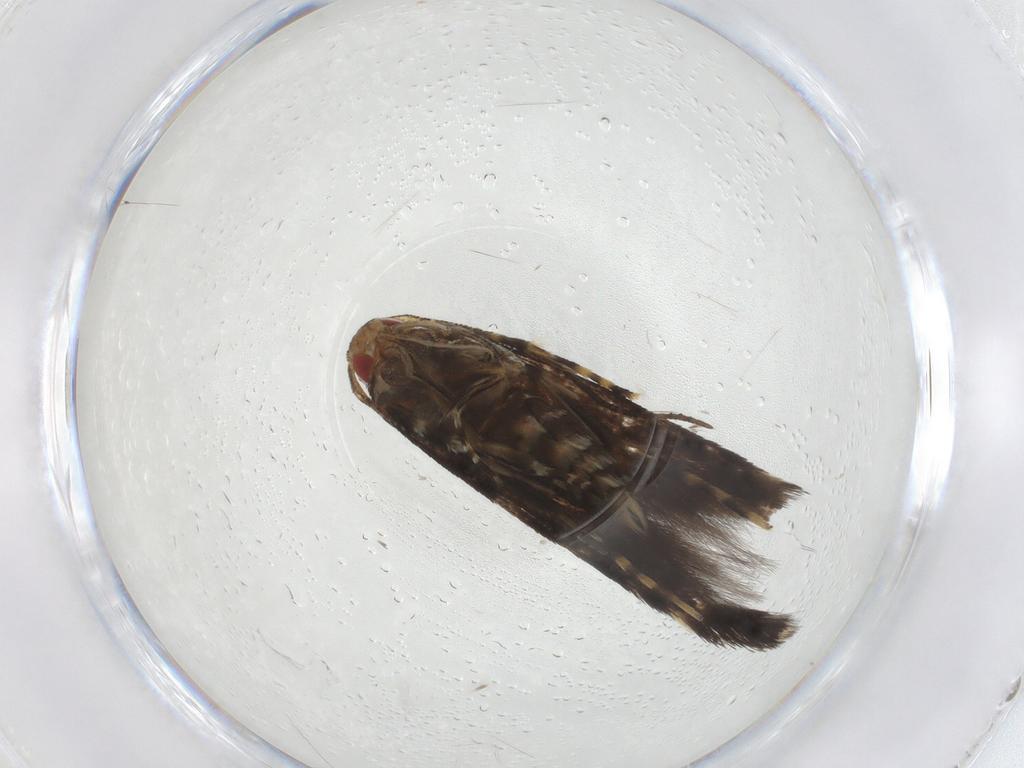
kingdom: Animalia
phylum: Arthropoda
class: Insecta
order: Lepidoptera
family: Cosmopterigidae
